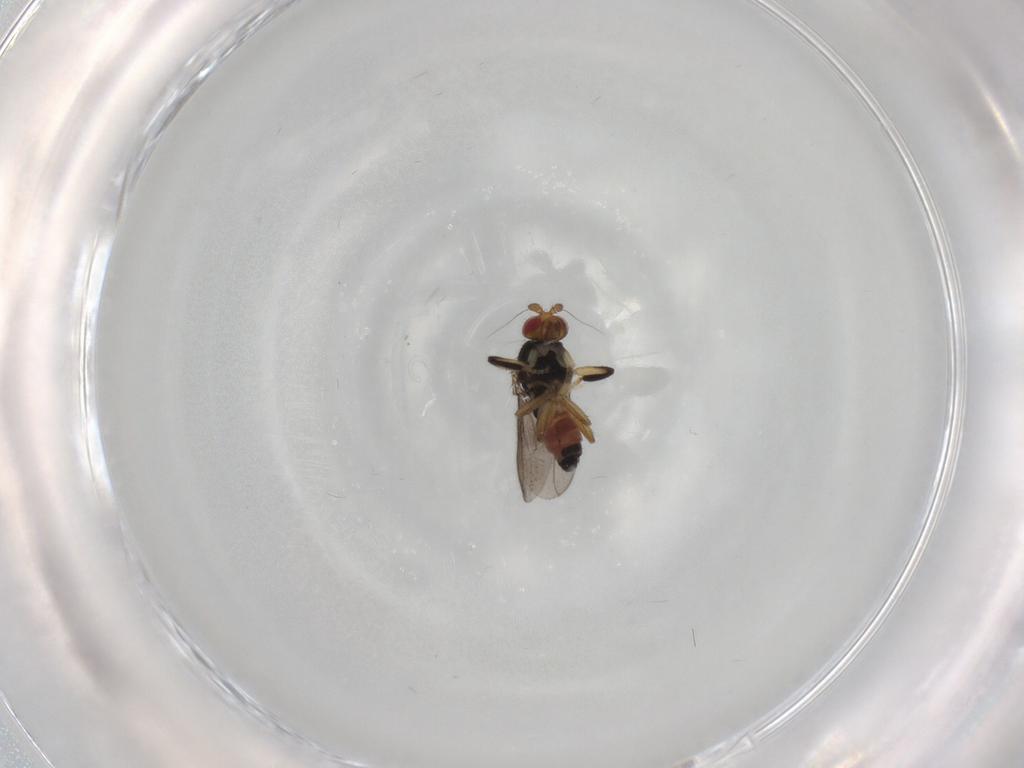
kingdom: Animalia
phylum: Arthropoda
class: Insecta
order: Diptera
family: Sphaeroceridae
